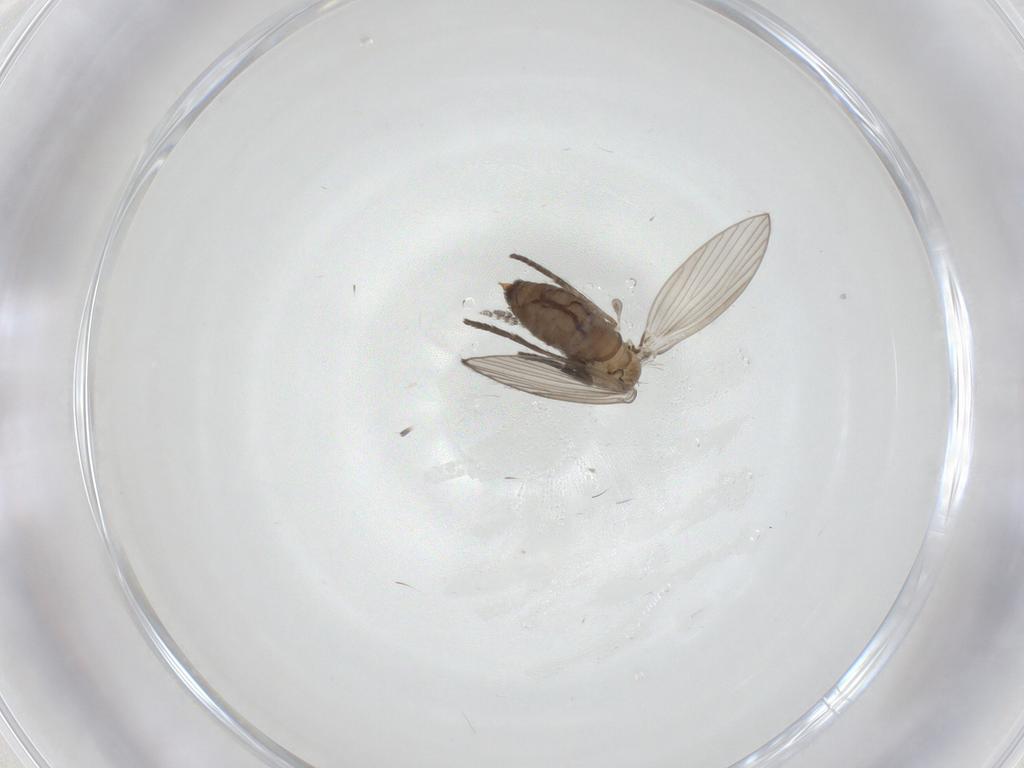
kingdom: Animalia
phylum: Arthropoda
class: Insecta
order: Diptera
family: Psychodidae
